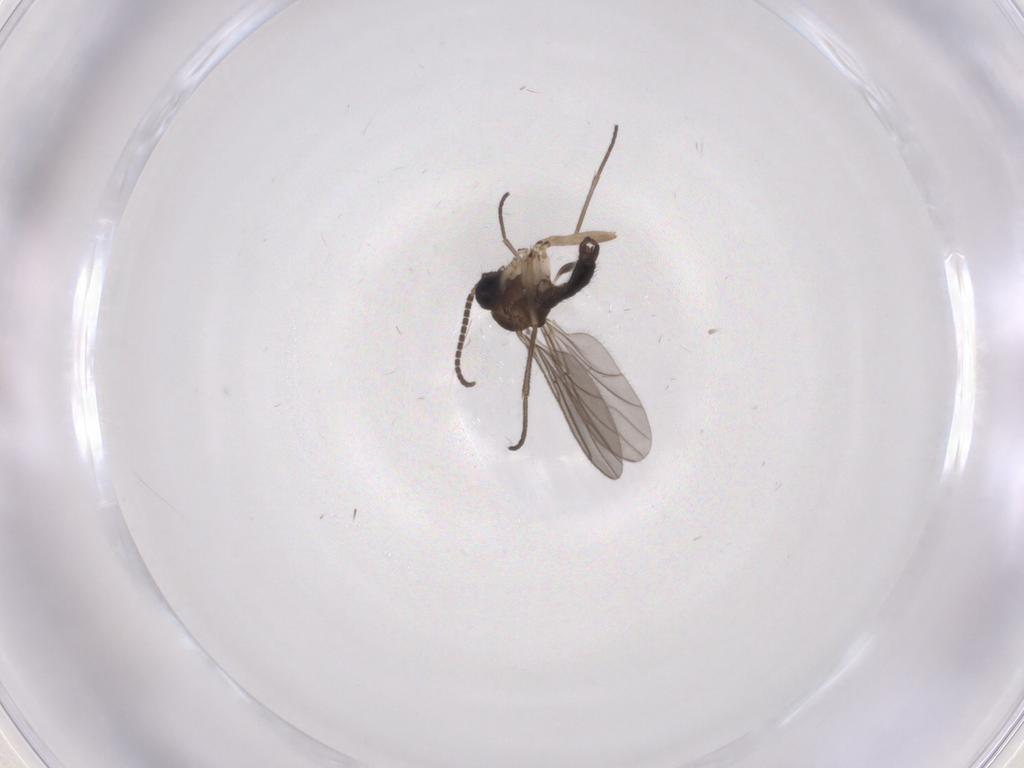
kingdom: Animalia
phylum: Arthropoda
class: Insecta
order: Diptera
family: Sciaridae
